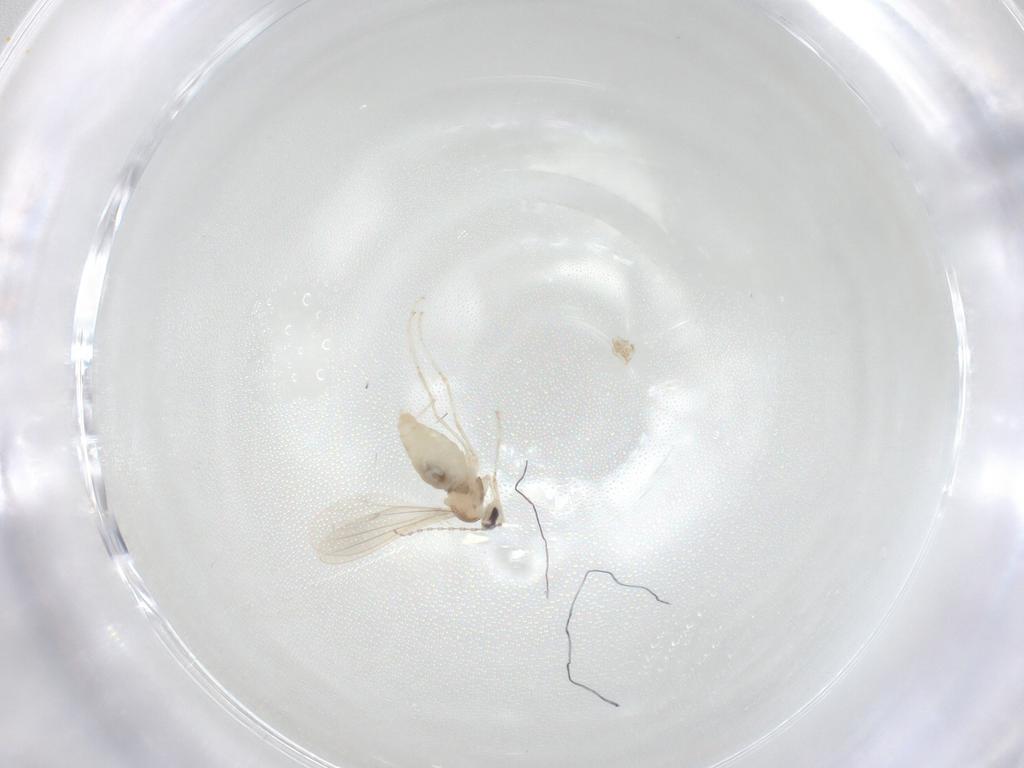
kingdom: Animalia
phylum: Arthropoda
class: Insecta
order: Diptera
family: Cecidomyiidae
